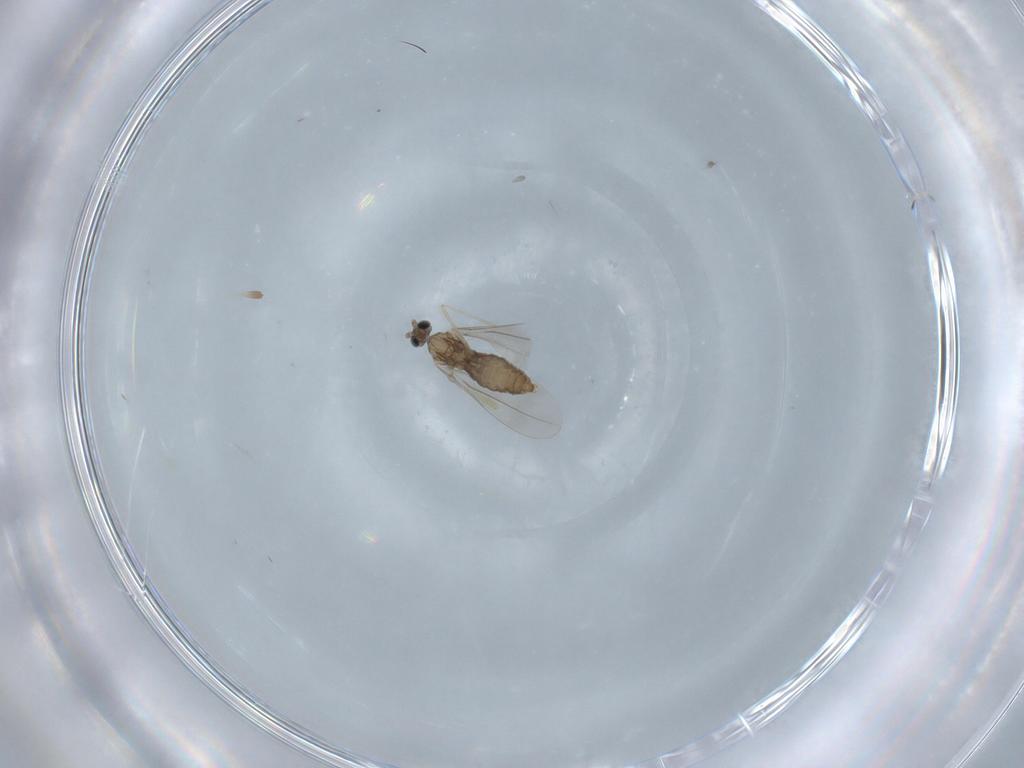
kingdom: Animalia
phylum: Arthropoda
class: Insecta
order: Diptera
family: Cecidomyiidae
